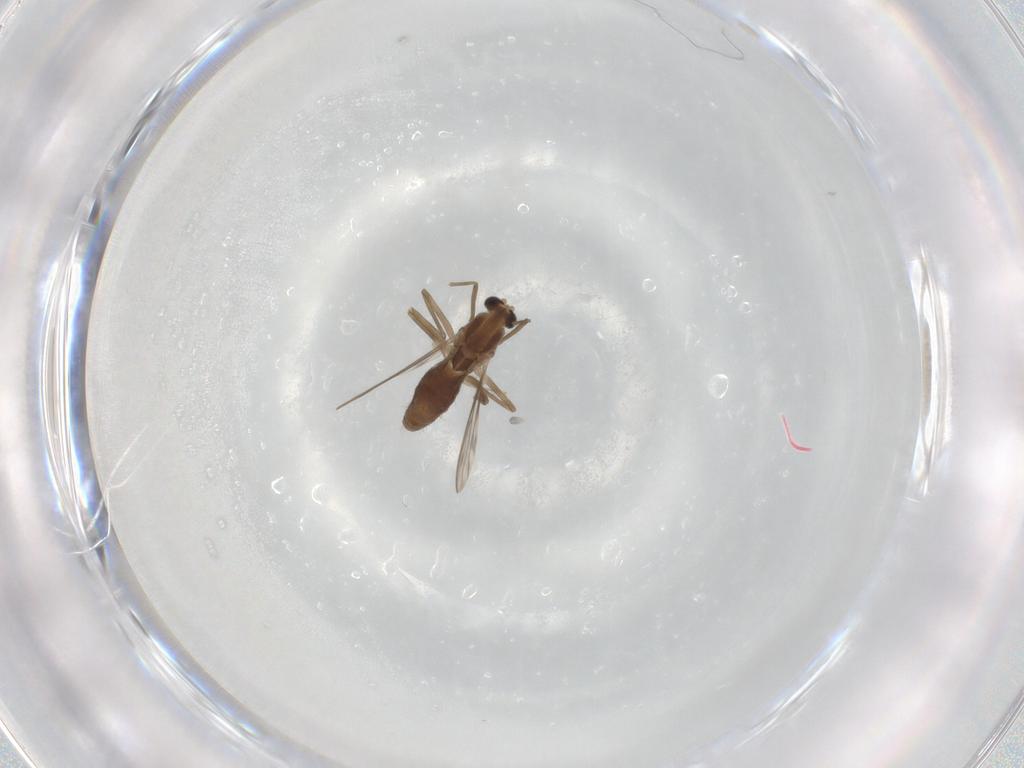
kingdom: Animalia
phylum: Arthropoda
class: Insecta
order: Diptera
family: Chironomidae
